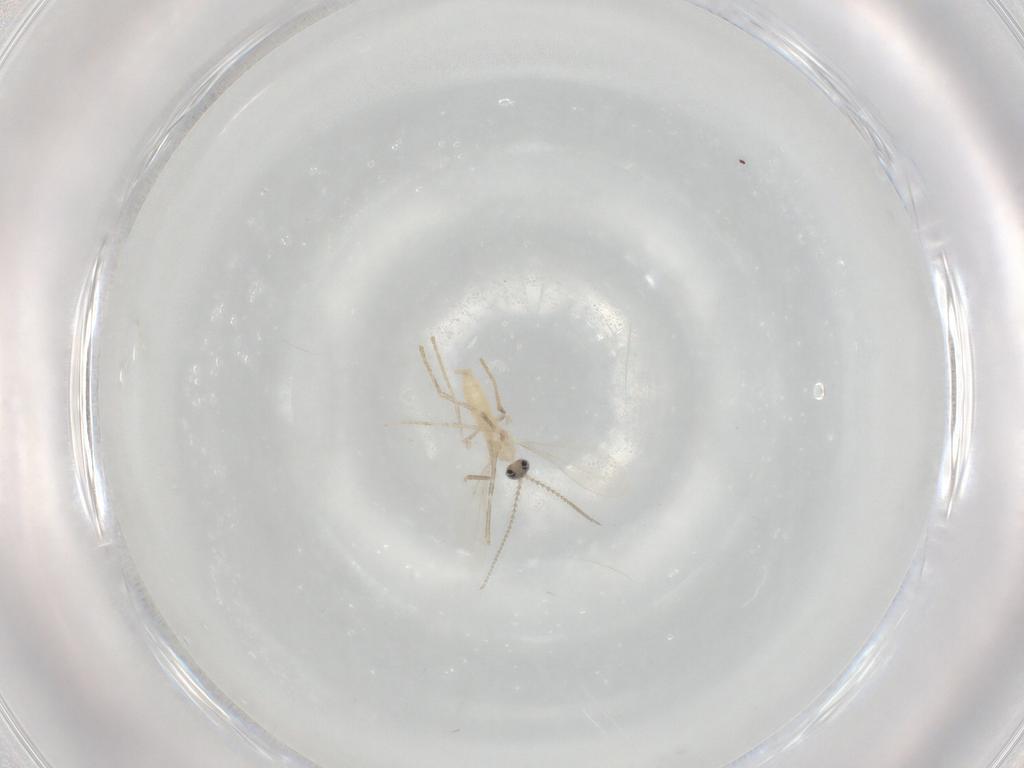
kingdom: Animalia
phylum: Arthropoda
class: Insecta
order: Diptera
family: Cecidomyiidae
